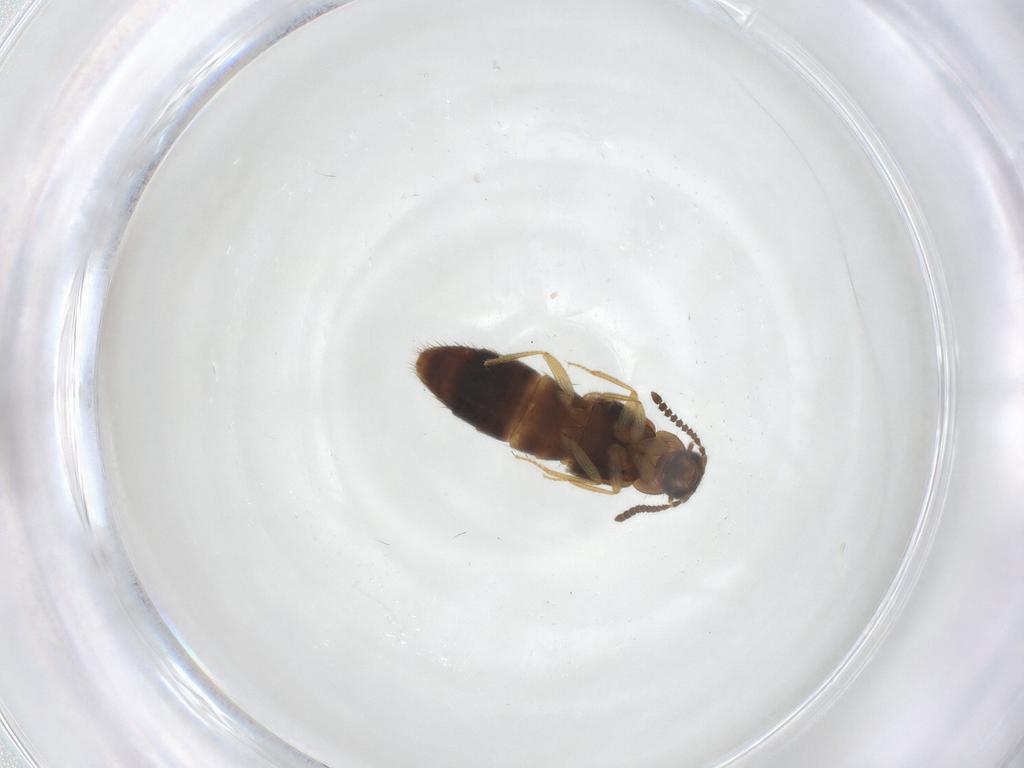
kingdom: Animalia
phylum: Arthropoda
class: Insecta
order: Coleoptera
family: Staphylinidae
